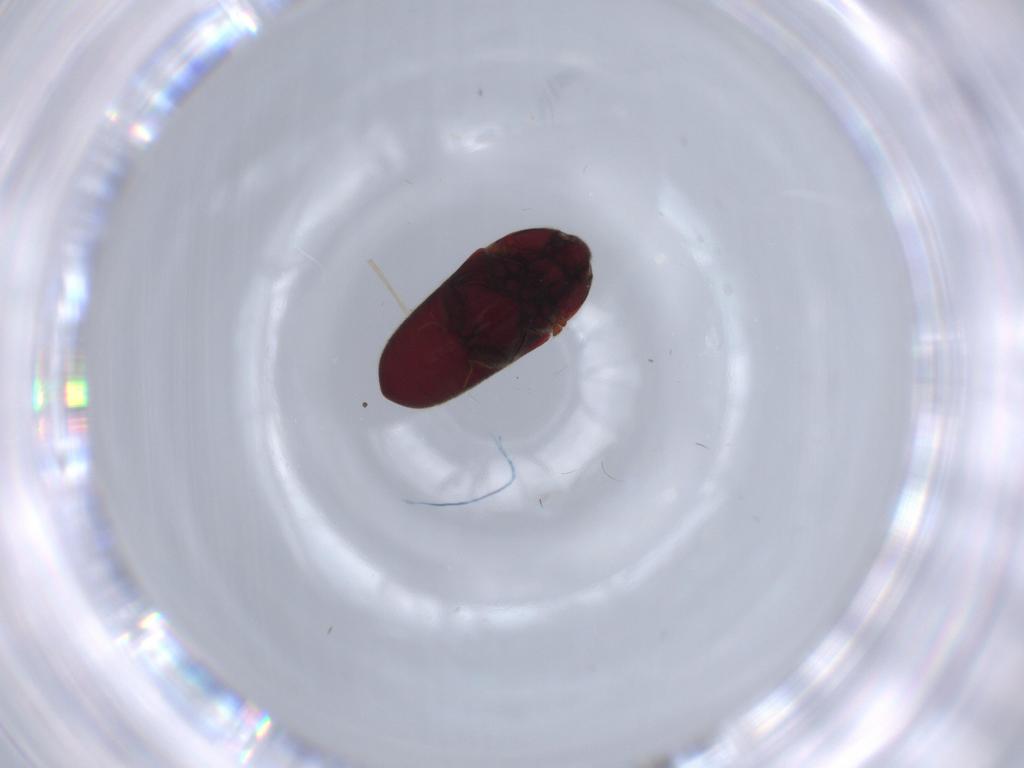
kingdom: Animalia
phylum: Arthropoda
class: Insecta
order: Coleoptera
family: Throscidae
